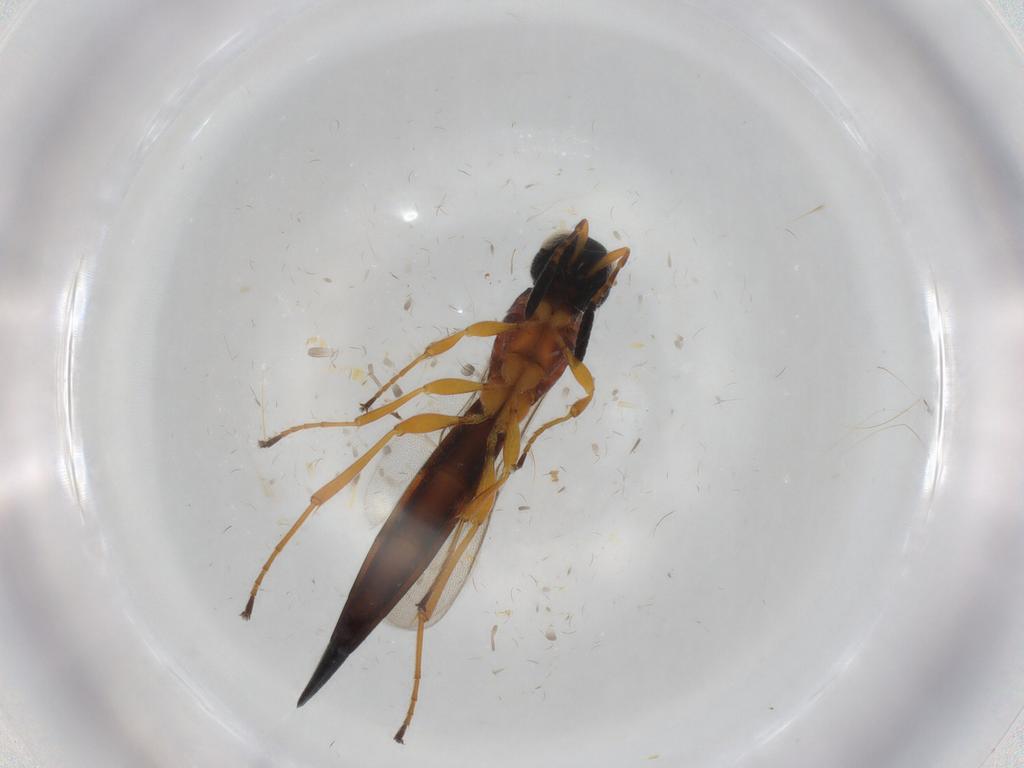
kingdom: Animalia
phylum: Arthropoda
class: Insecta
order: Hymenoptera
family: Scelionidae
